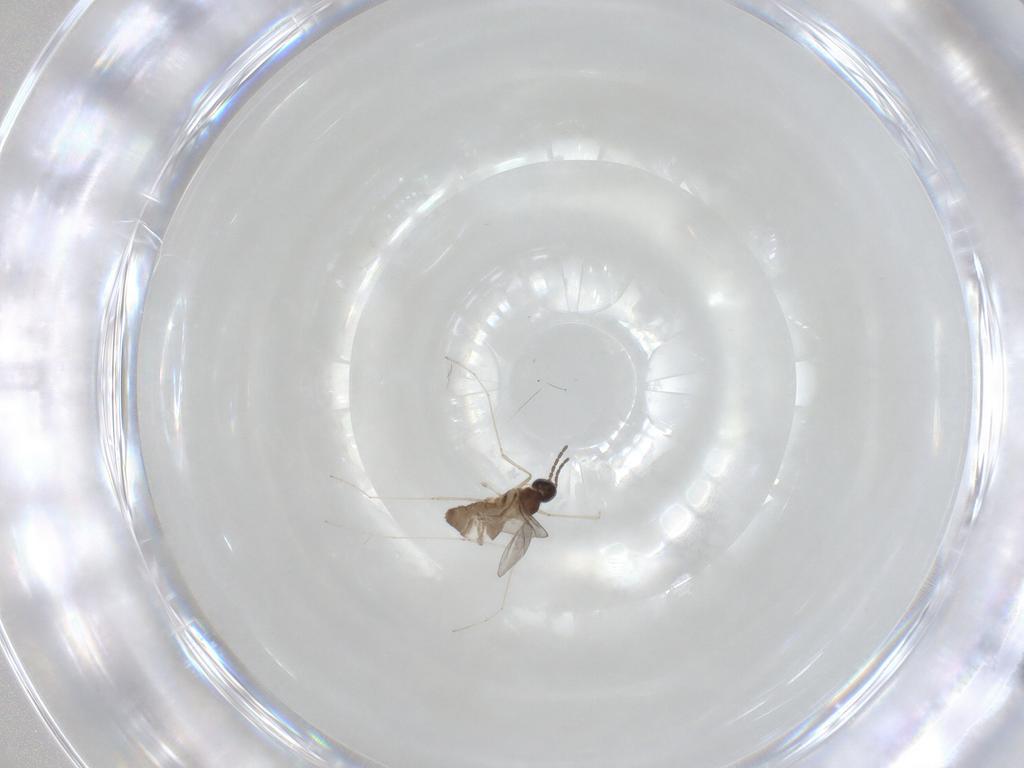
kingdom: Animalia
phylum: Arthropoda
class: Insecta
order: Diptera
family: Cecidomyiidae
